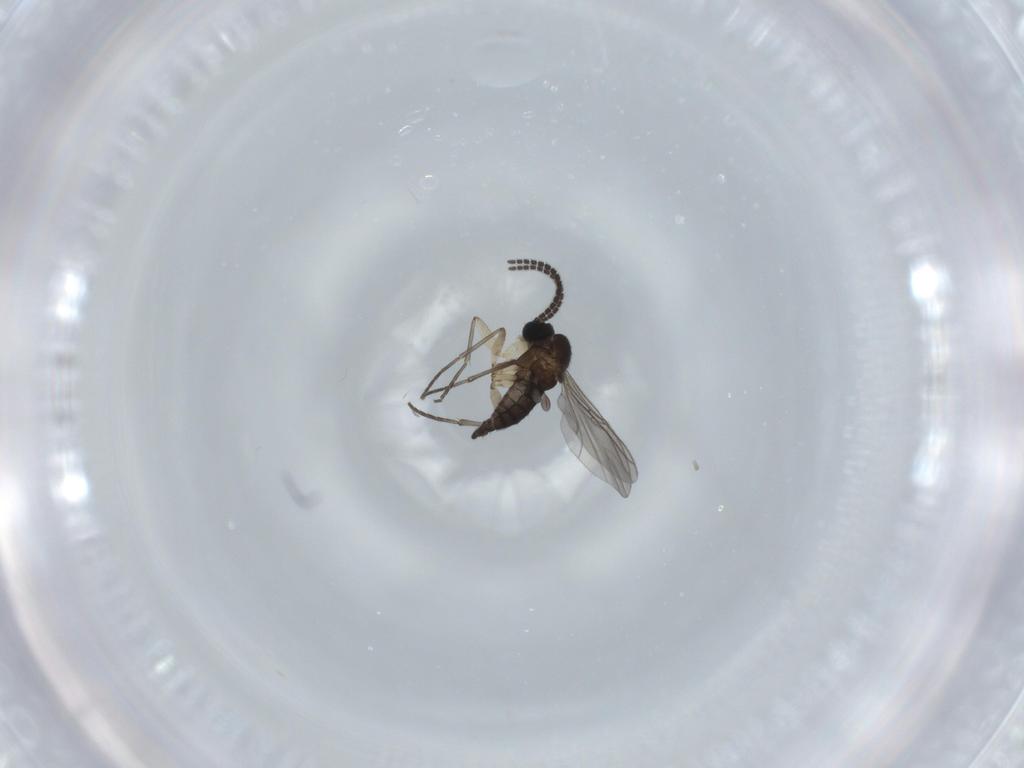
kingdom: Animalia
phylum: Arthropoda
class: Insecta
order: Diptera
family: Sciaridae
